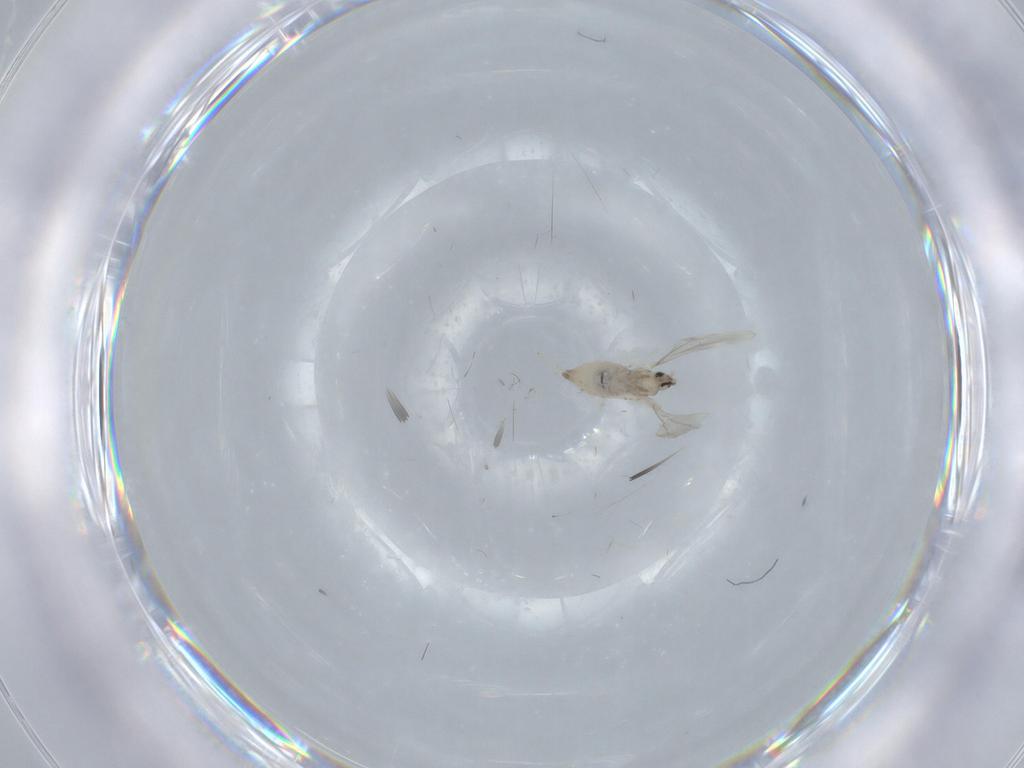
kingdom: Animalia
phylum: Arthropoda
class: Insecta
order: Diptera
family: Cecidomyiidae
